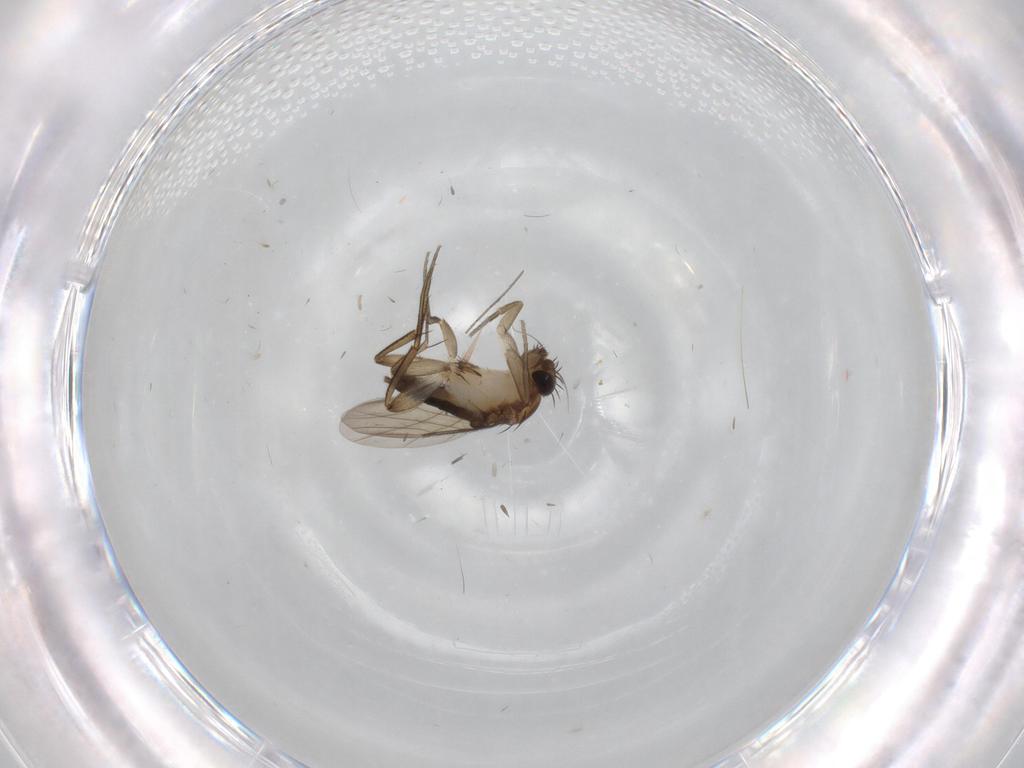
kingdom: Animalia
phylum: Arthropoda
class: Insecta
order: Diptera
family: Phoridae
